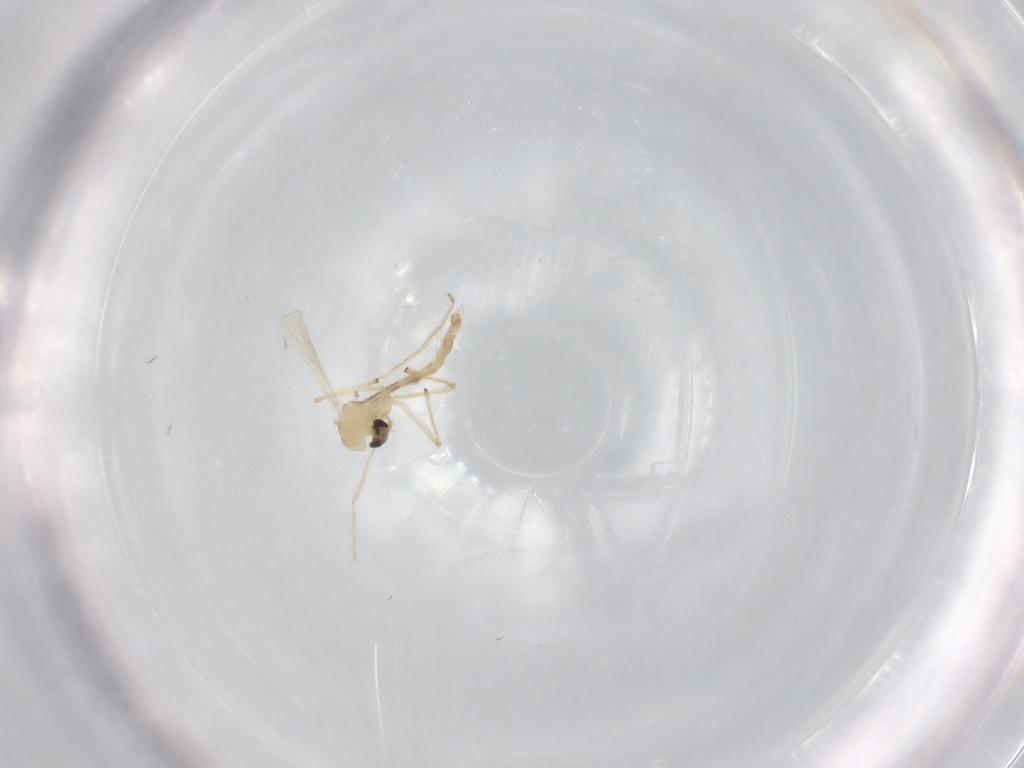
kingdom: Animalia
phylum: Arthropoda
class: Insecta
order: Diptera
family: Chironomidae
